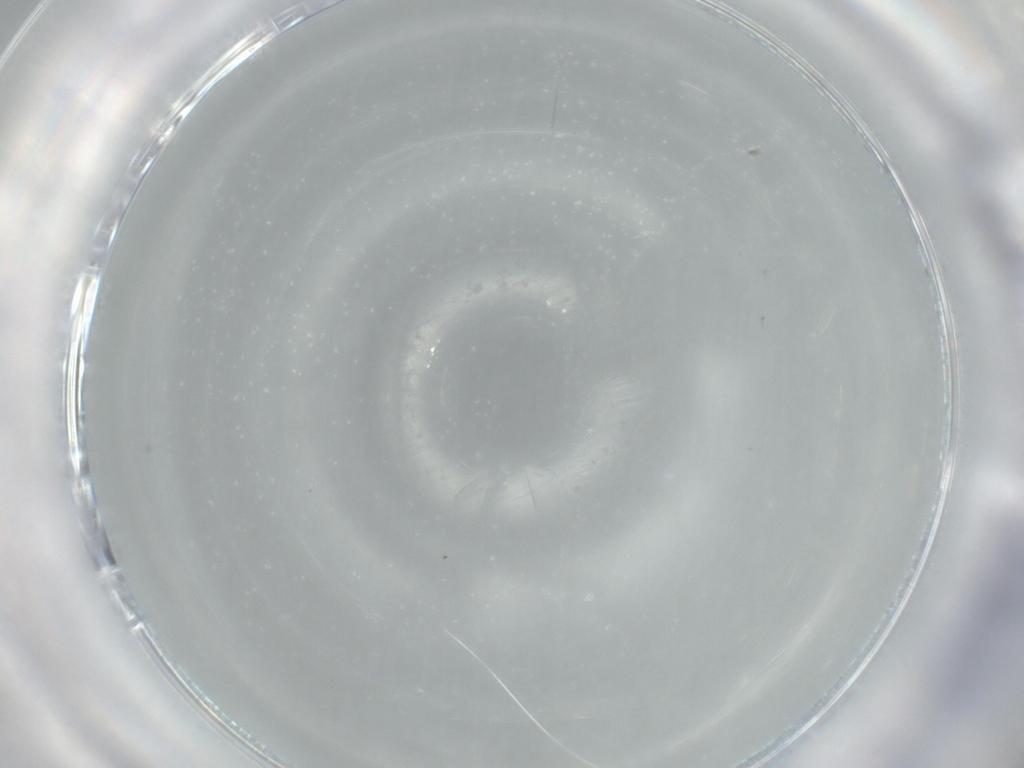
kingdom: Animalia
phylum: Arthropoda
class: Insecta
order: Diptera
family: Cecidomyiidae
